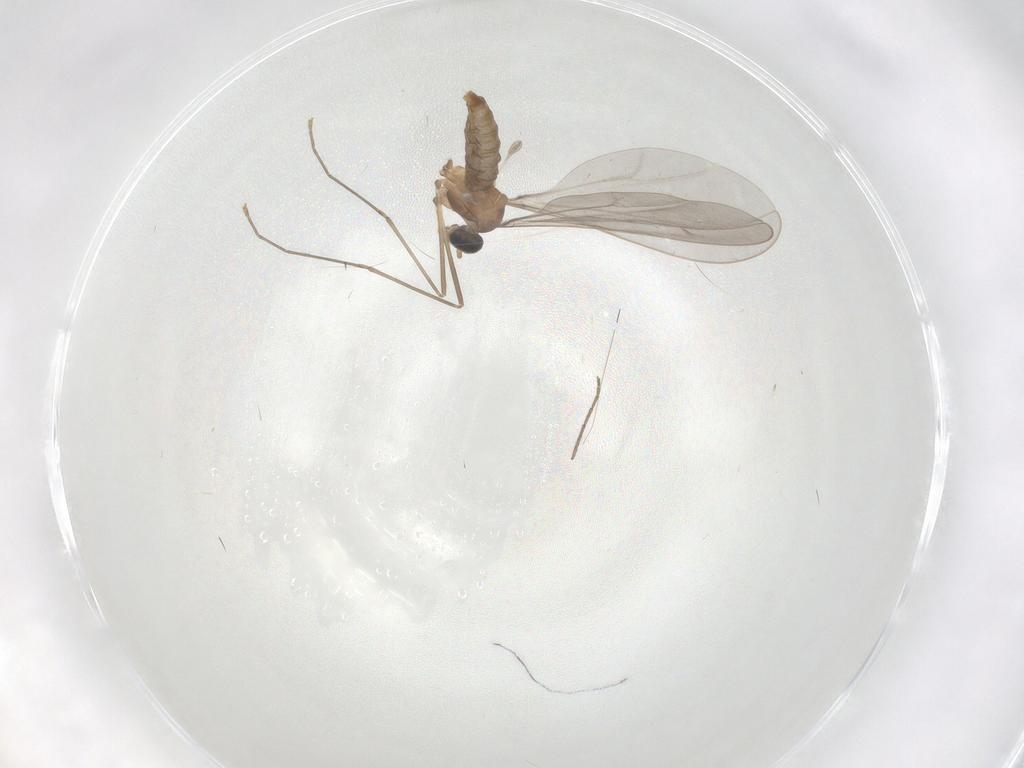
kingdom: Animalia
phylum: Arthropoda
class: Insecta
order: Diptera
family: Cecidomyiidae
